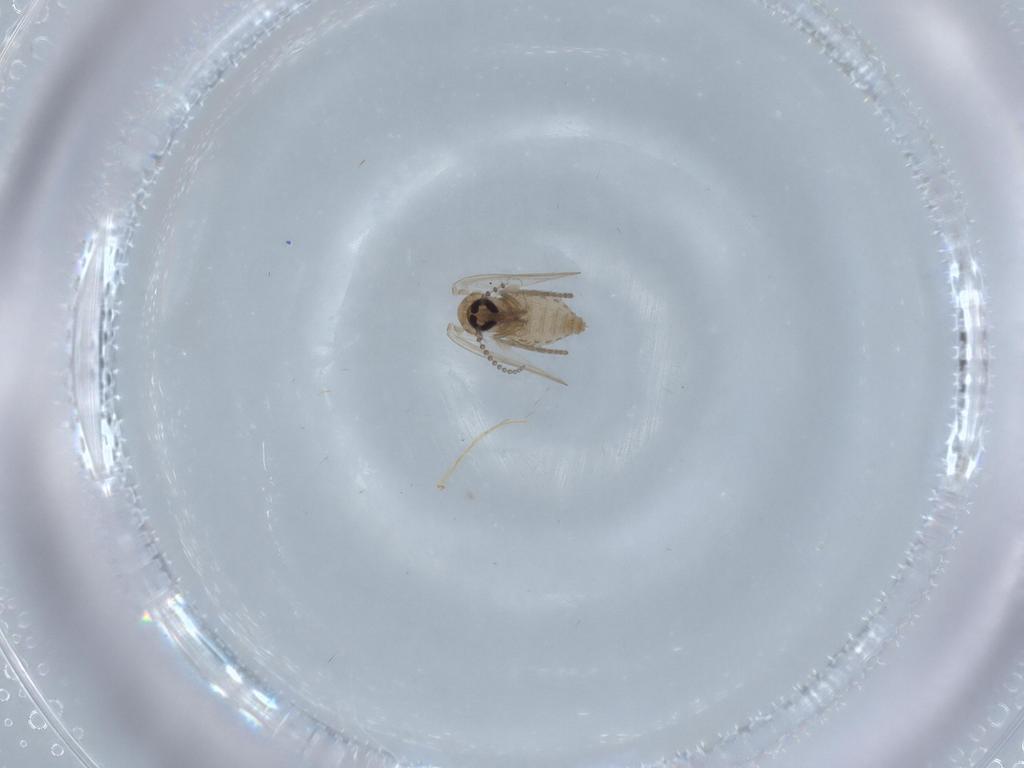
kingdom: Animalia
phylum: Arthropoda
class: Insecta
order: Diptera
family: Psychodidae
